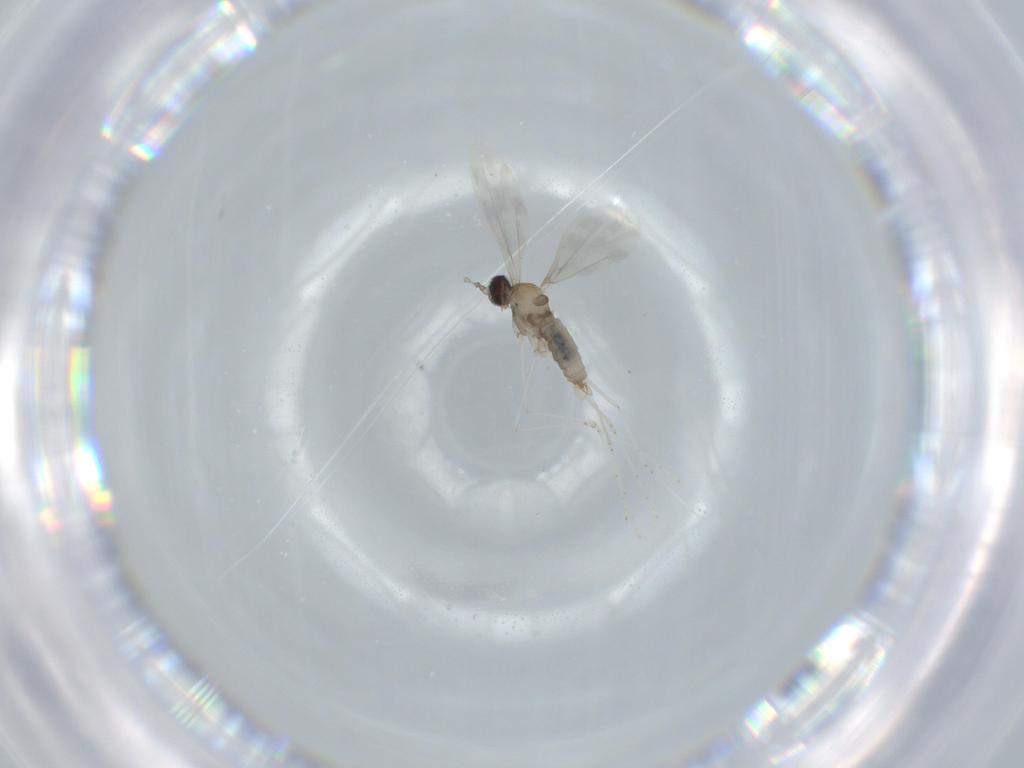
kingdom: Animalia
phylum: Arthropoda
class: Insecta
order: Diptera
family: Cecidomyiidae
